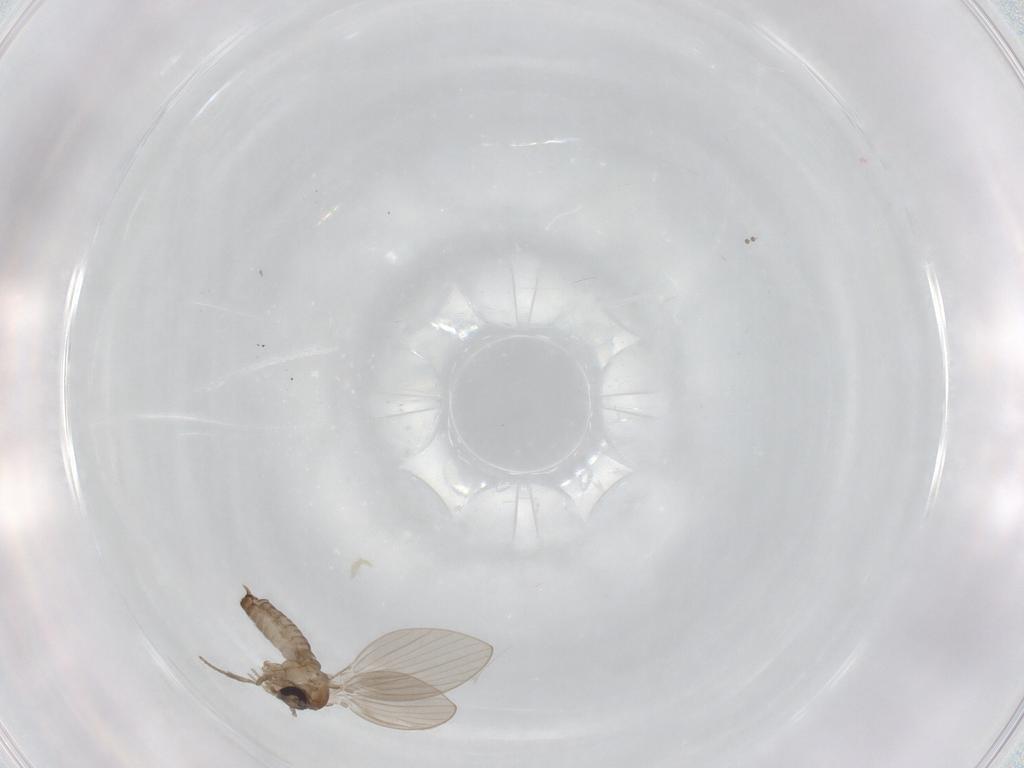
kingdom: Animalia
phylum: Arthropoda
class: Insecta
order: Diptera
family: Psychodidae
